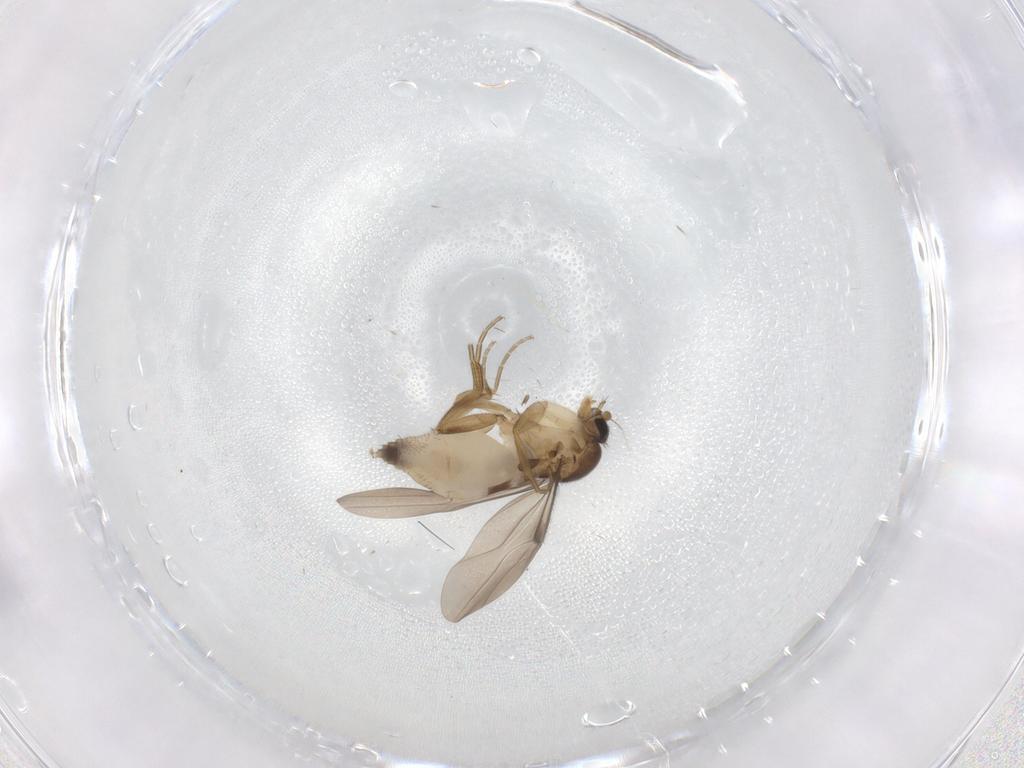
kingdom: Animalia
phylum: Arthropoda
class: Insecta
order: Diptera
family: Phoridae
